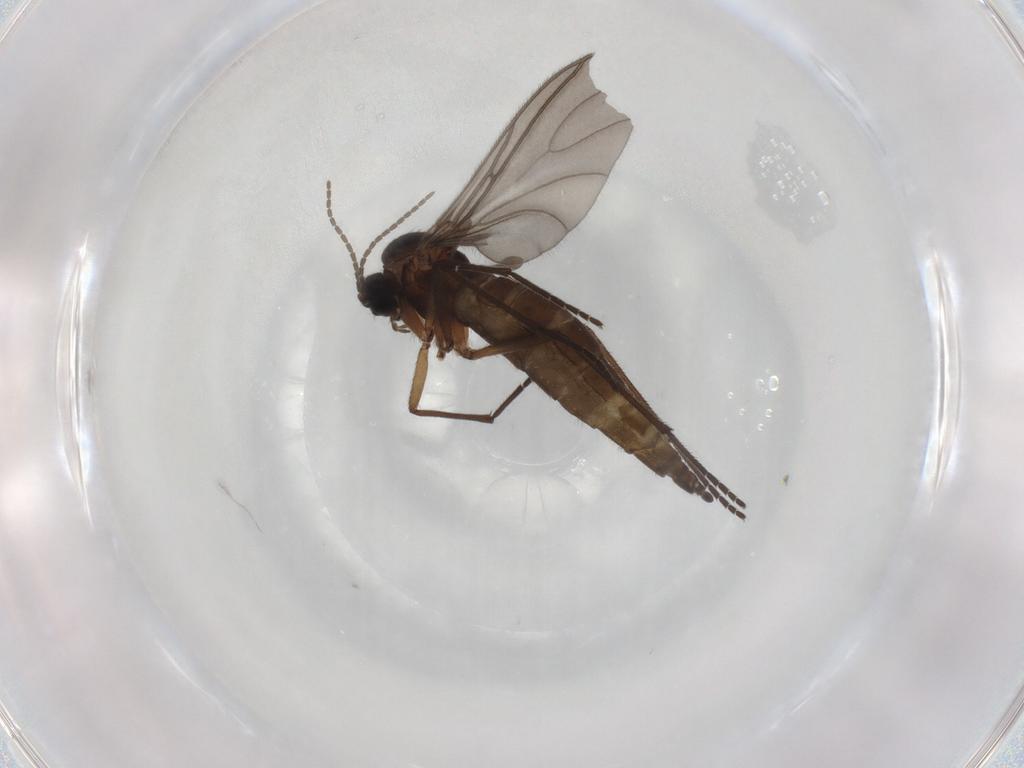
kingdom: Animalia
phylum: Arthropoda
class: Insecta
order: Diptera
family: Sciaridae
